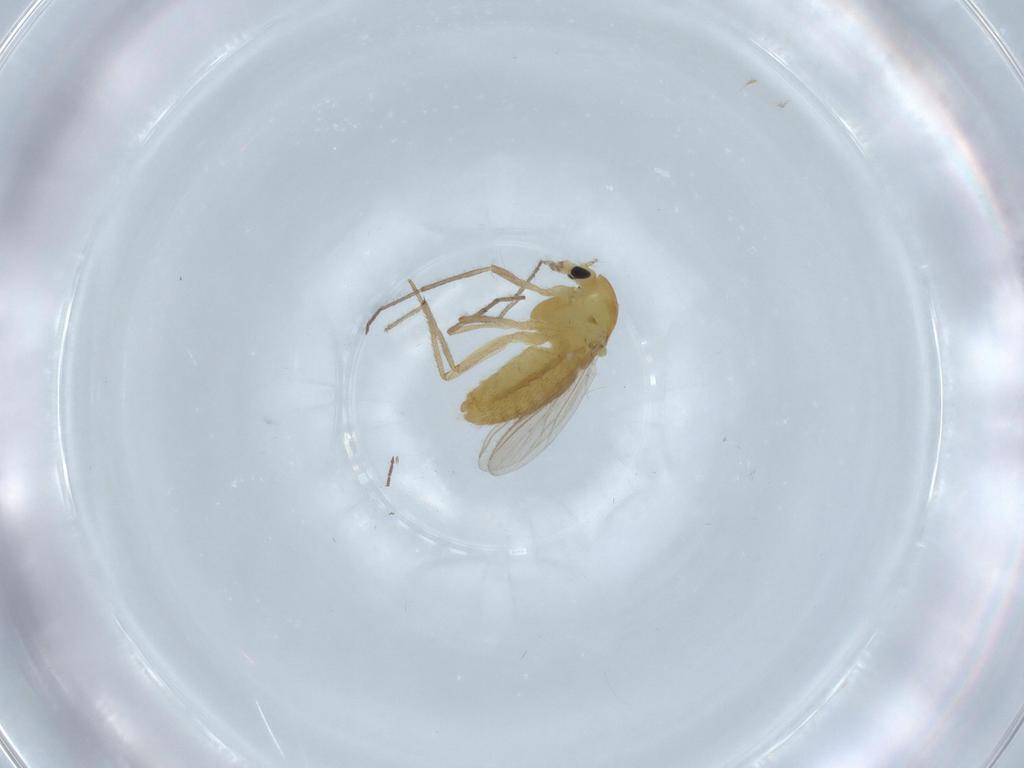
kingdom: Animalia
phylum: Arthropoda
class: Insecta
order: Diptera
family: Chironomidae
